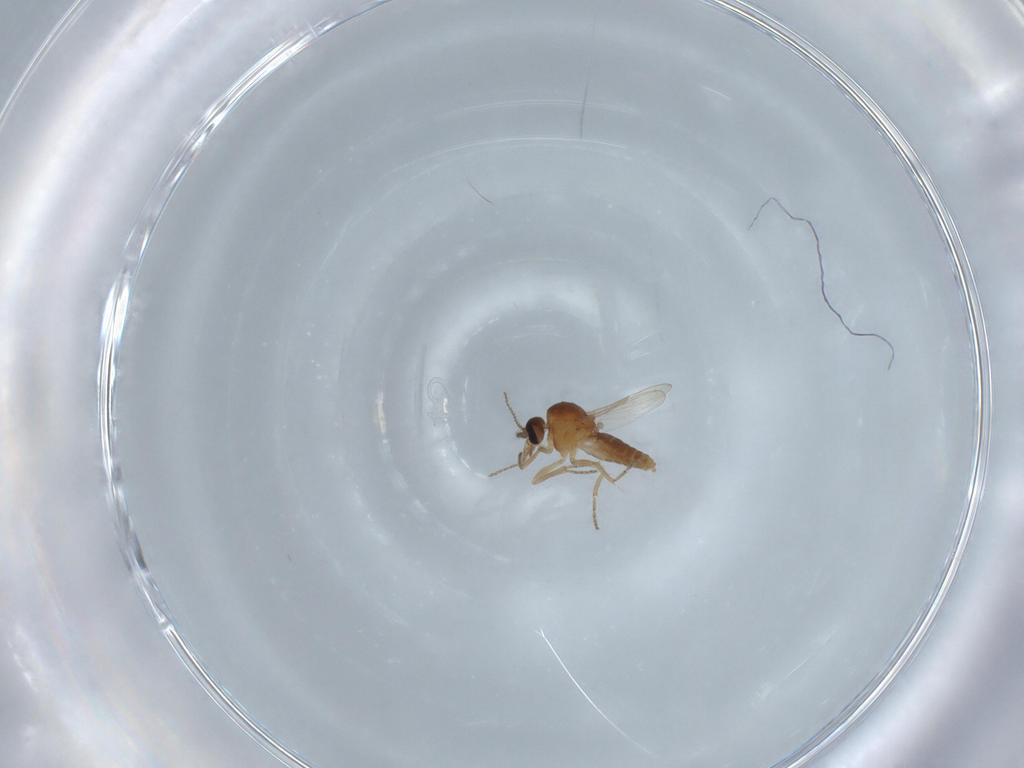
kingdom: Animalia
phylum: Arthropoda
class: Insecta
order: Diptera
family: Ceratopogonidae
